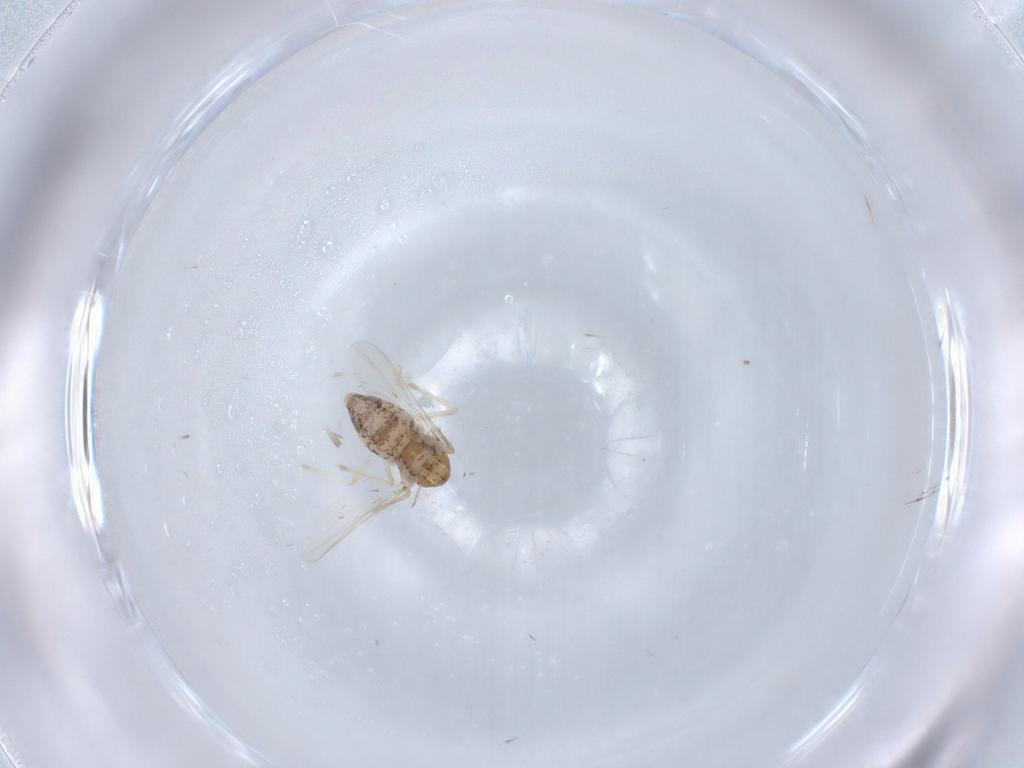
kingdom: Animalia
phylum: Arthropoda
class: Insecta
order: Diptera
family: Chironomidae
